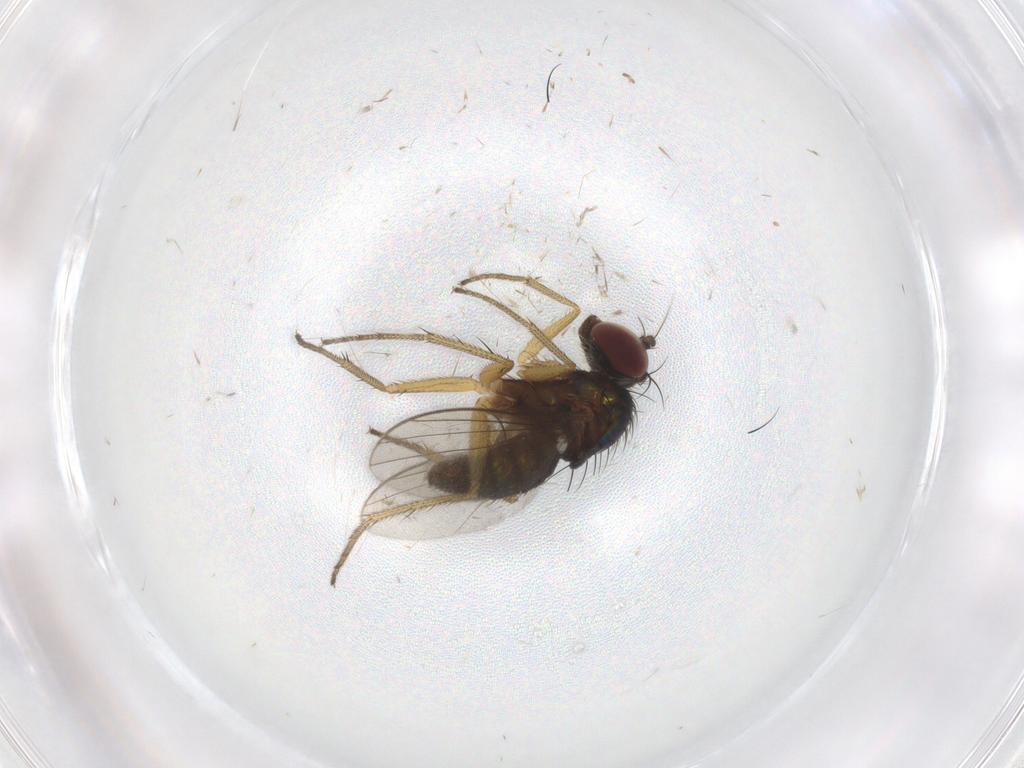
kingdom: Animalia
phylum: Arthropoda
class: Insecta
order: Diptera
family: Dolichopodidae
